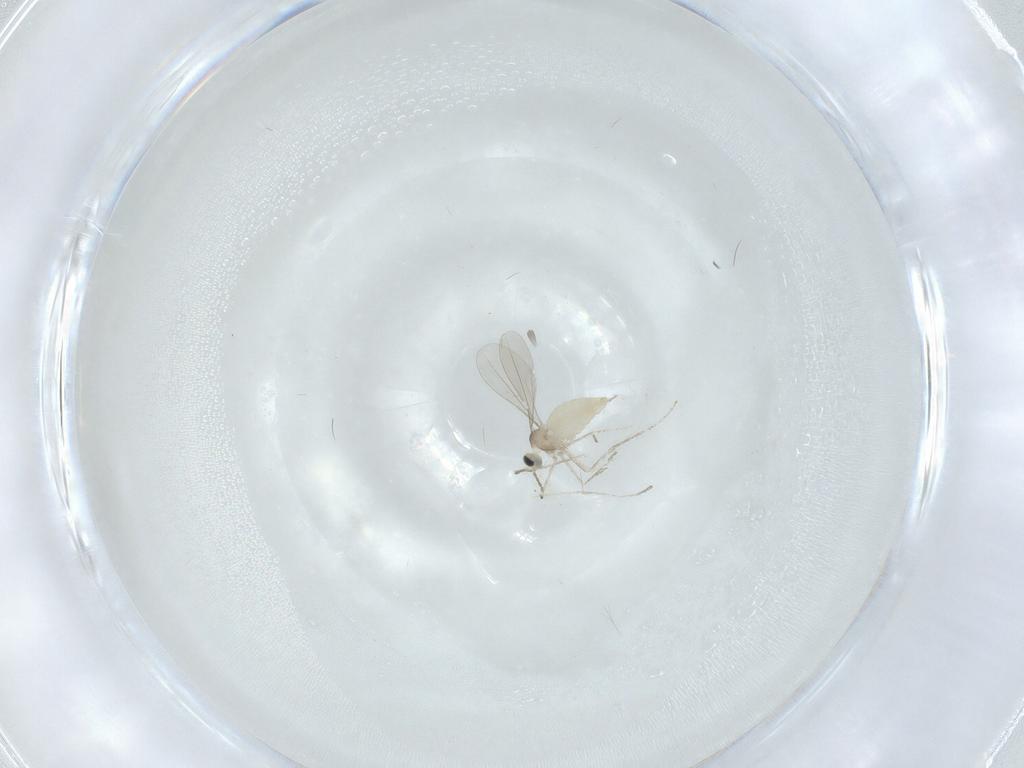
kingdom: Animalia
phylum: Arthropoda
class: Insecta
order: Diptera
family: Cecidomyiidae
